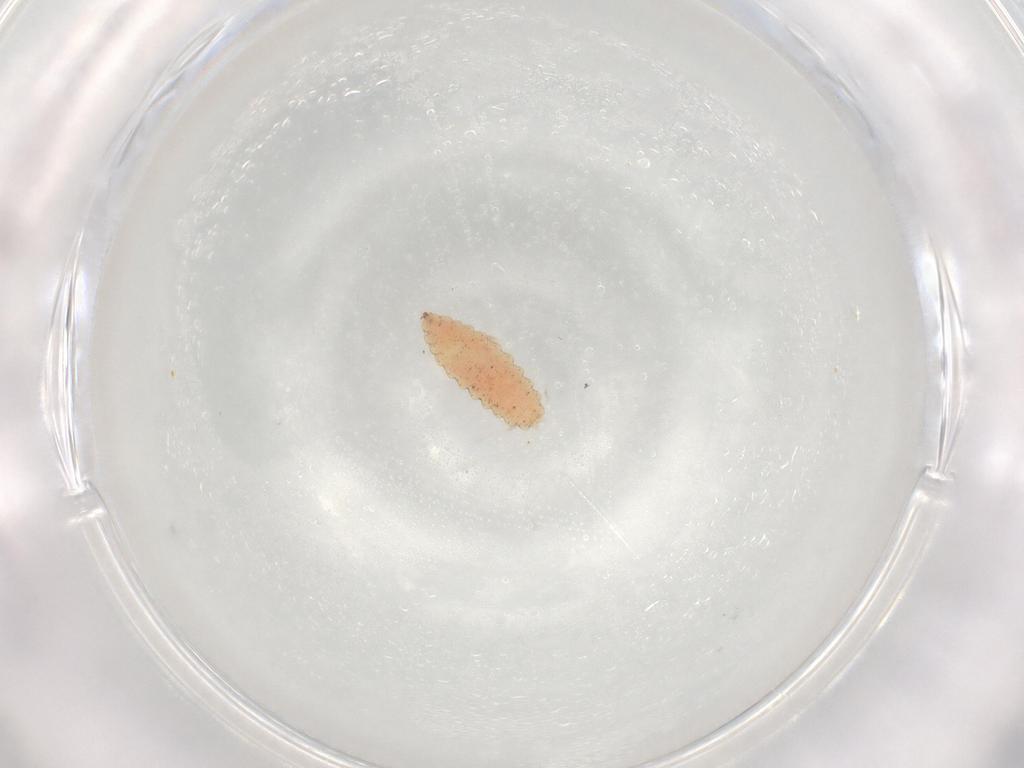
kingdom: Animalia
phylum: Arthropoda
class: Insecta
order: Diptera
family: Cecidomyiidae
